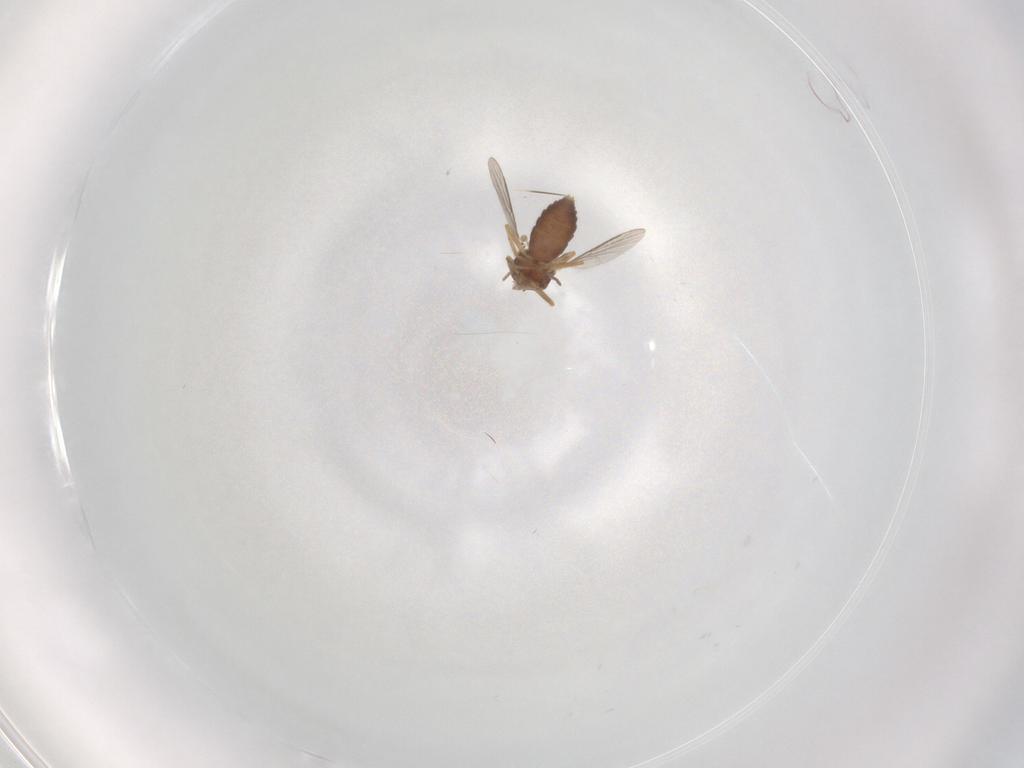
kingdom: Animalia
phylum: Arthropoda
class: Insecta
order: Diptera
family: Ceratopogonidae
